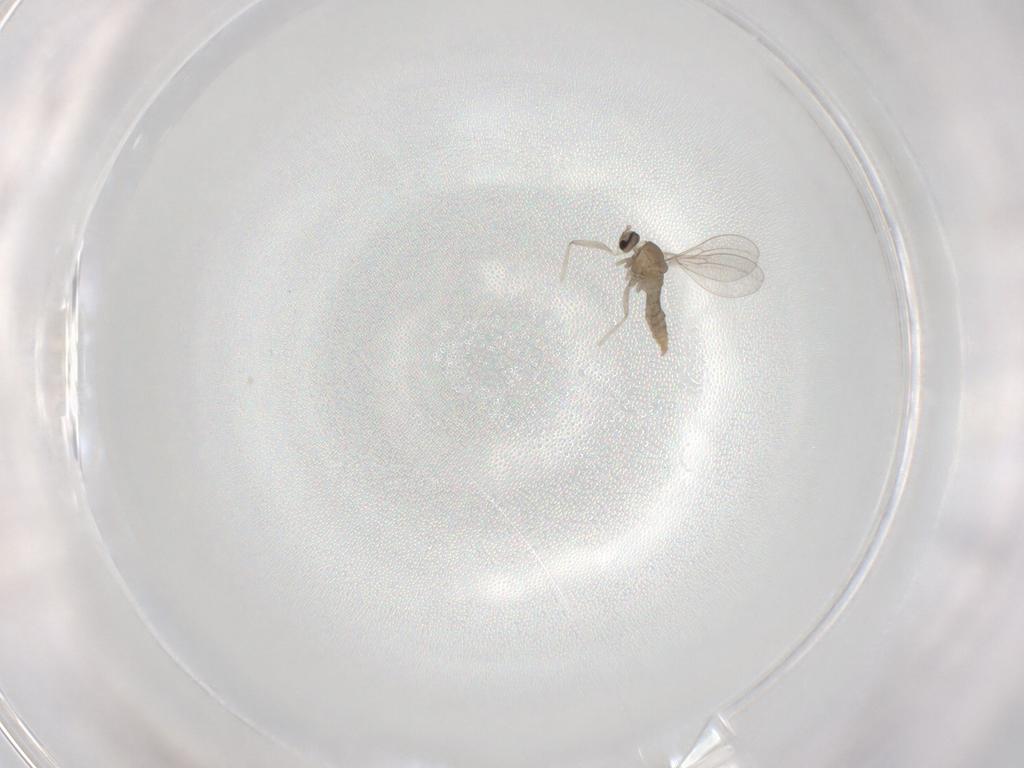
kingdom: Animalia
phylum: Arthropoda
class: Insecta
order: Diptera
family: Cecidomyiidae
